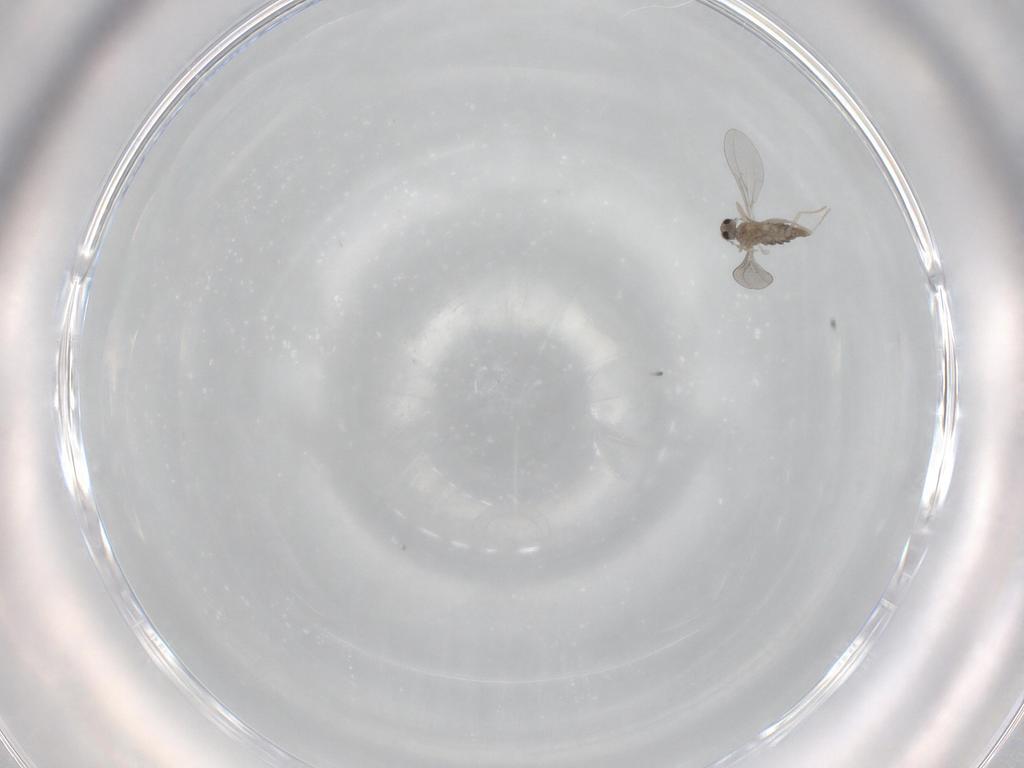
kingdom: Animalia
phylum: Arthropoda
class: Insecta
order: Diptera
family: Cecidomyiidae
